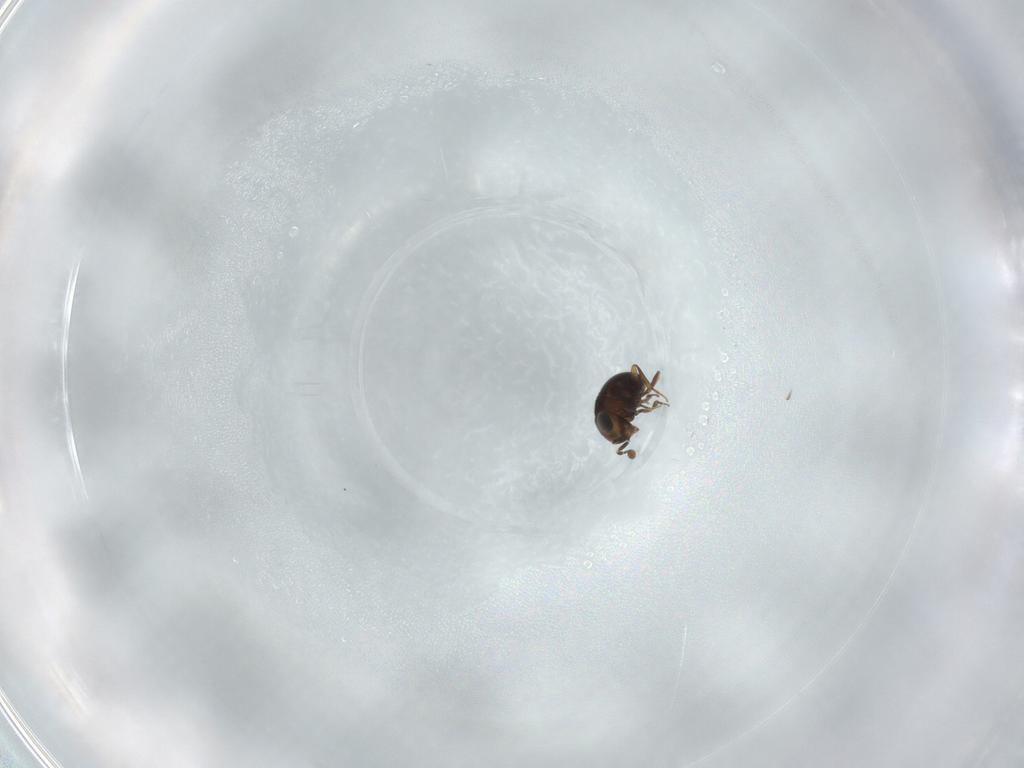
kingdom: Animalia
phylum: Arthropoda
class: Insecta
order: Hymenoptera
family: Scelionidae
